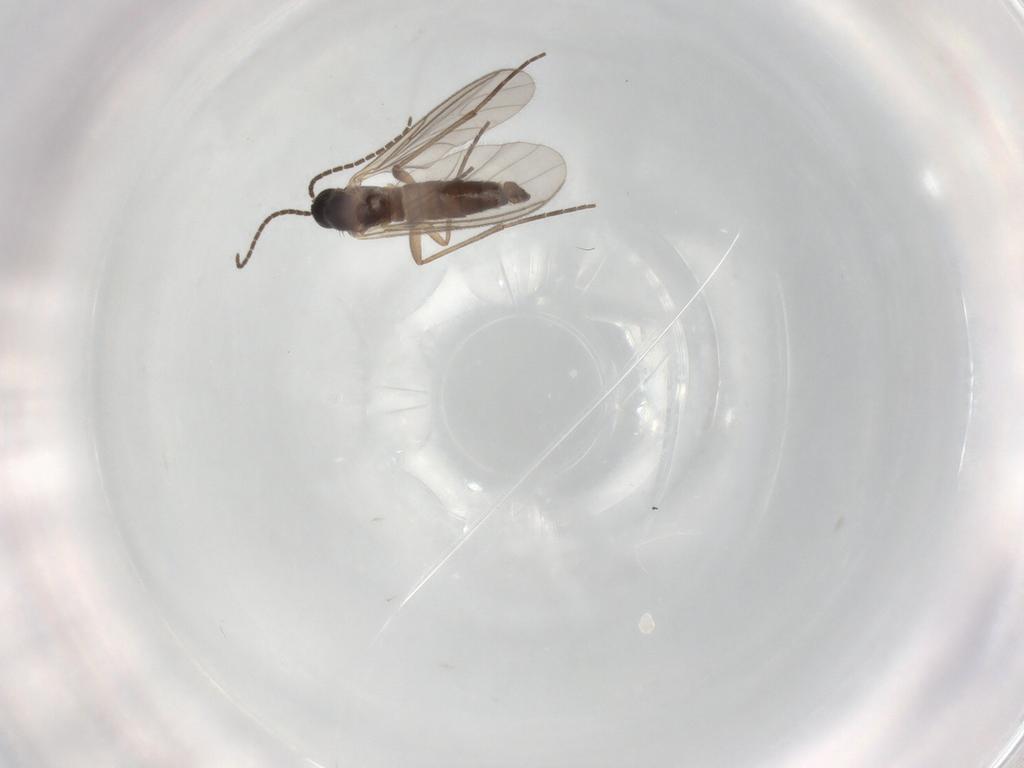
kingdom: Animalia
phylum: Arthropoda
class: Insecta
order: Diptera
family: Sciaridae
